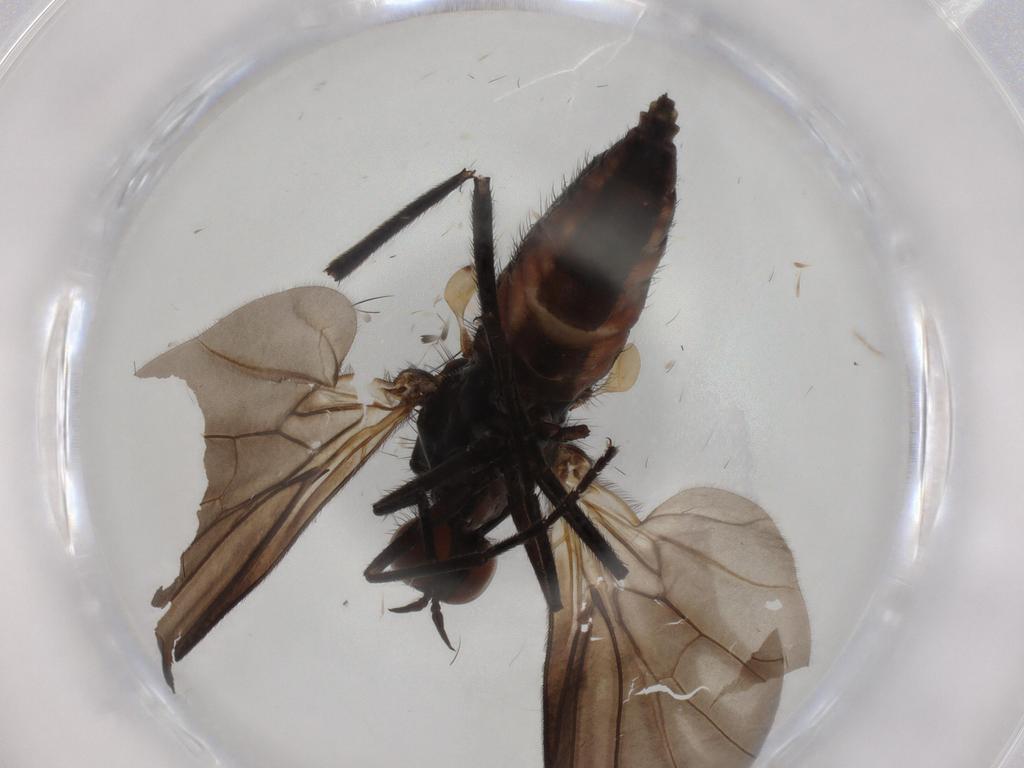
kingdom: Animalia
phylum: Arthropoda
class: Insecta
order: Diptera
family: Empididae
